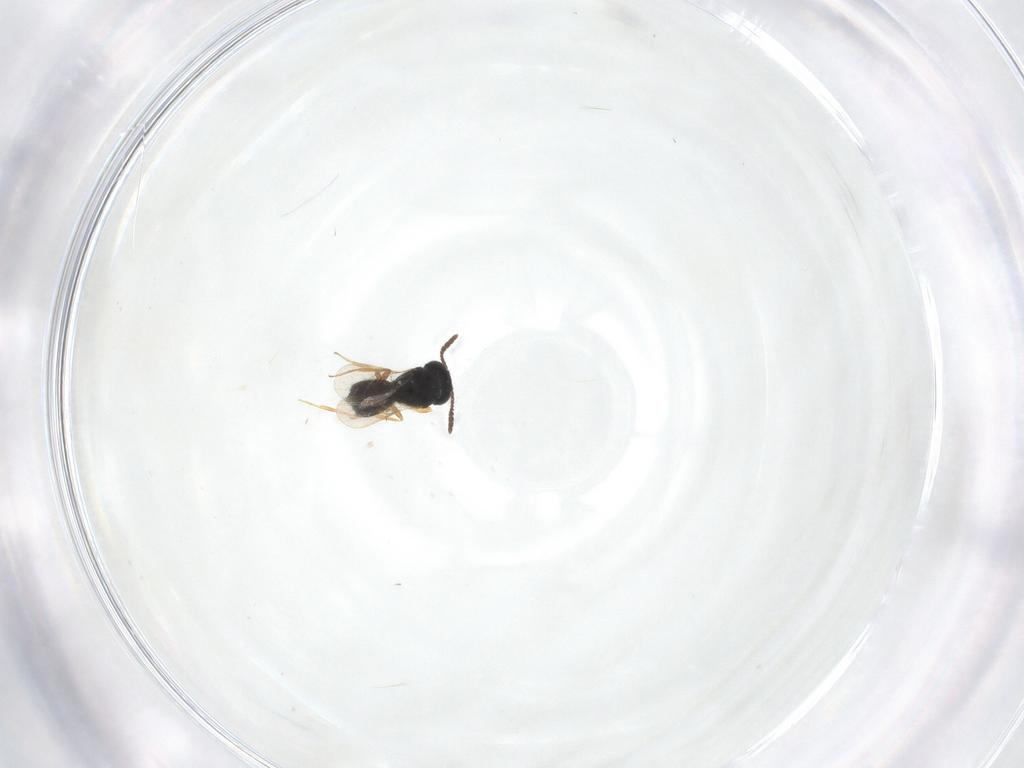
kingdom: Animalia
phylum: Arthropoda
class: Insecta
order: Hymenoptera
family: Scelionidae
